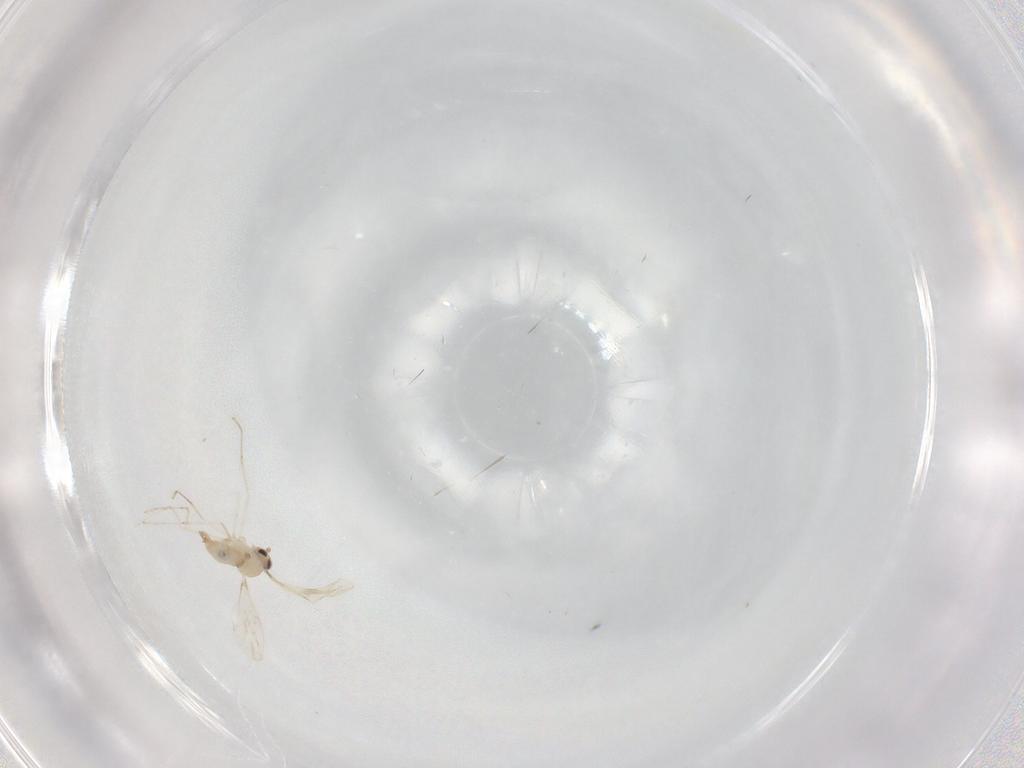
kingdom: Animalia
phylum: Arthropoda
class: Insecta
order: Diptera
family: Cecidomyiidae
